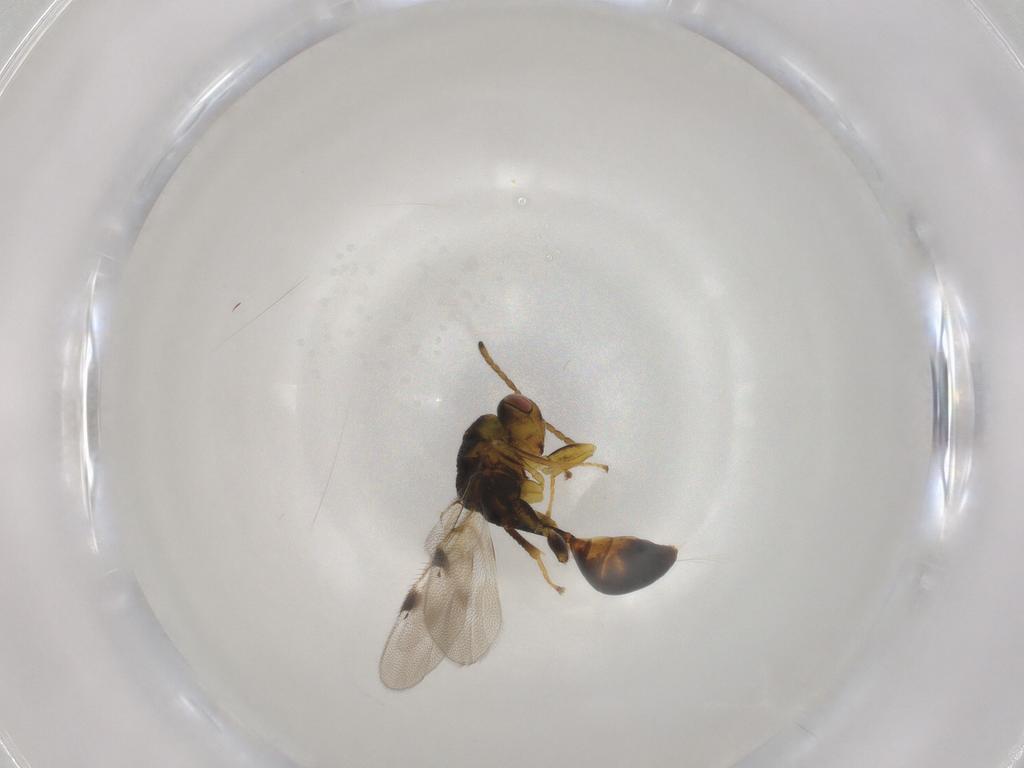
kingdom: Animalia
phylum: Arthropoda
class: Insecta
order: Hymenoptera
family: Eurytomidae
